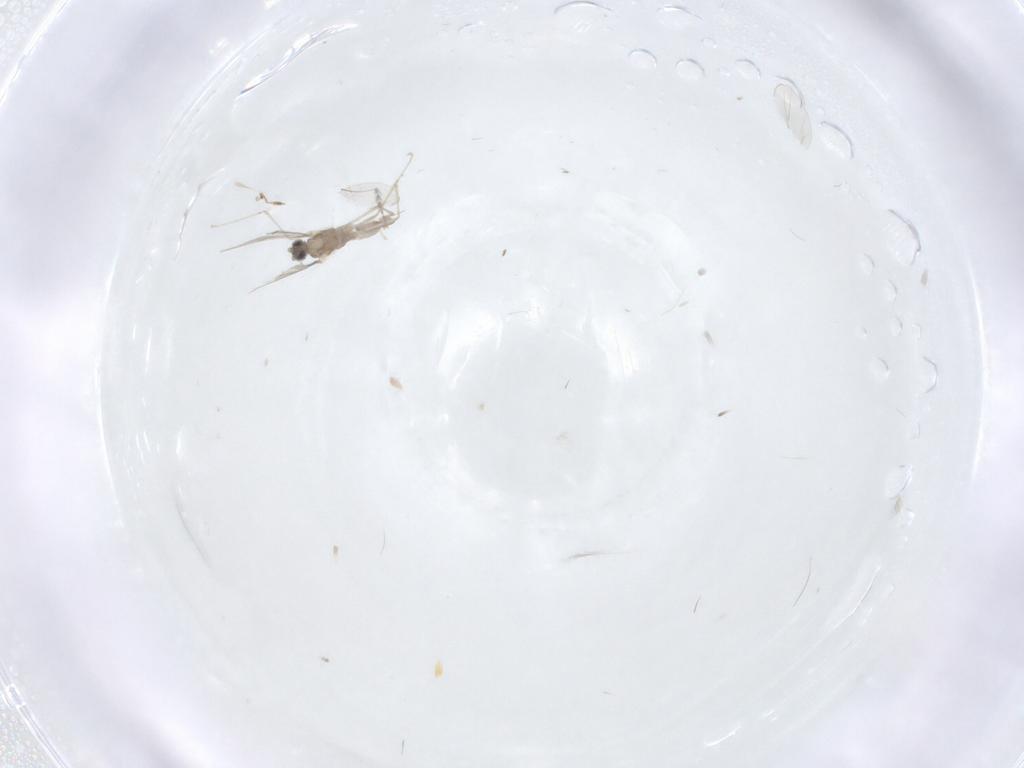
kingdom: Animalia
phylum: Arthropoda
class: Insecta
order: Diptera
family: Cecidomyiidae
